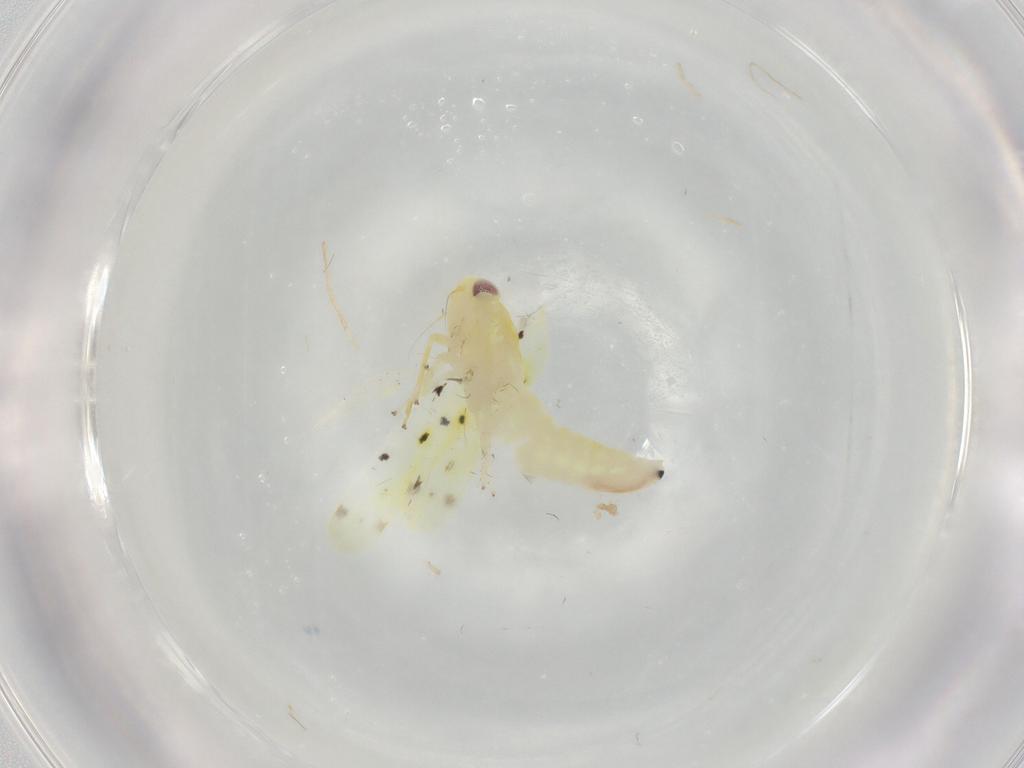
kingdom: Animalia
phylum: Arthropoda
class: Insecta
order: Hemiptera
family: Cicadellidae
